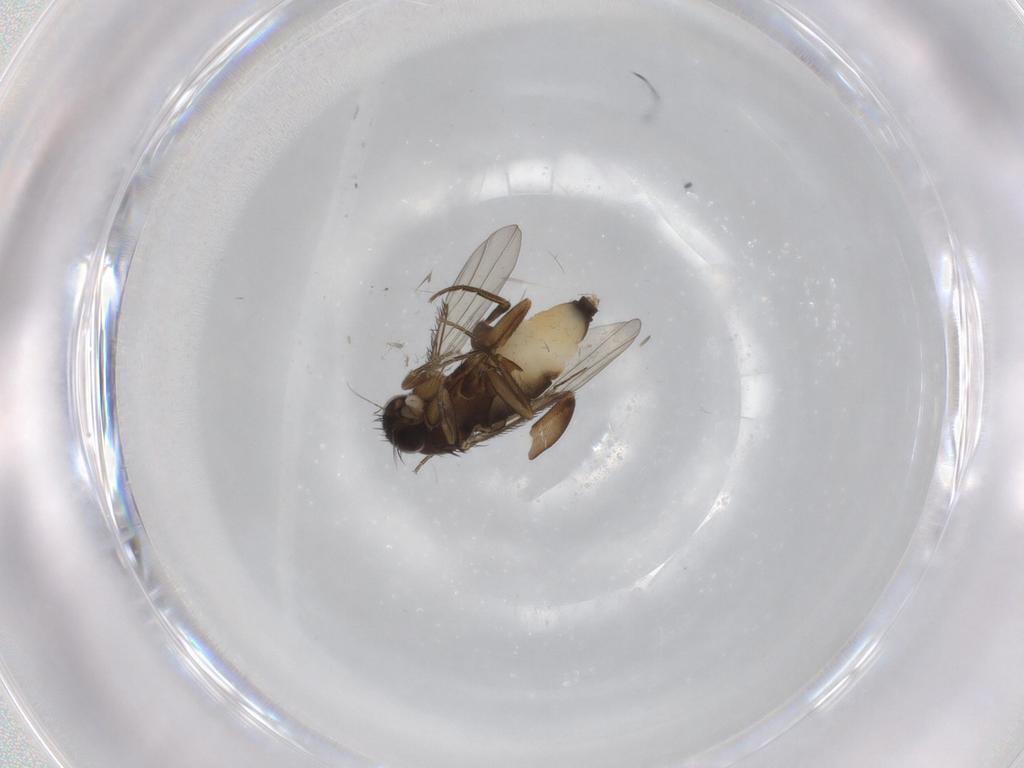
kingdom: Animalia
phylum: Arthropoda
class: Insecta
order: Diptera
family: Phoridae
